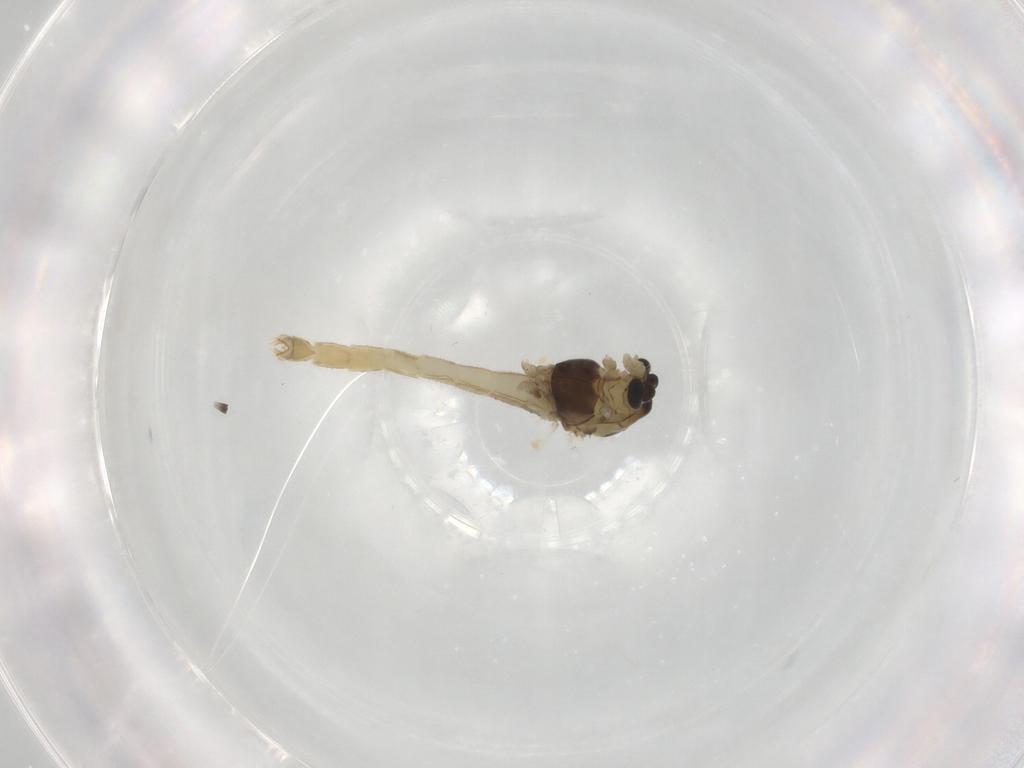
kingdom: Animalia
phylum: Arthropoda
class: Insecta
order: Diptera
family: Chironomidae
